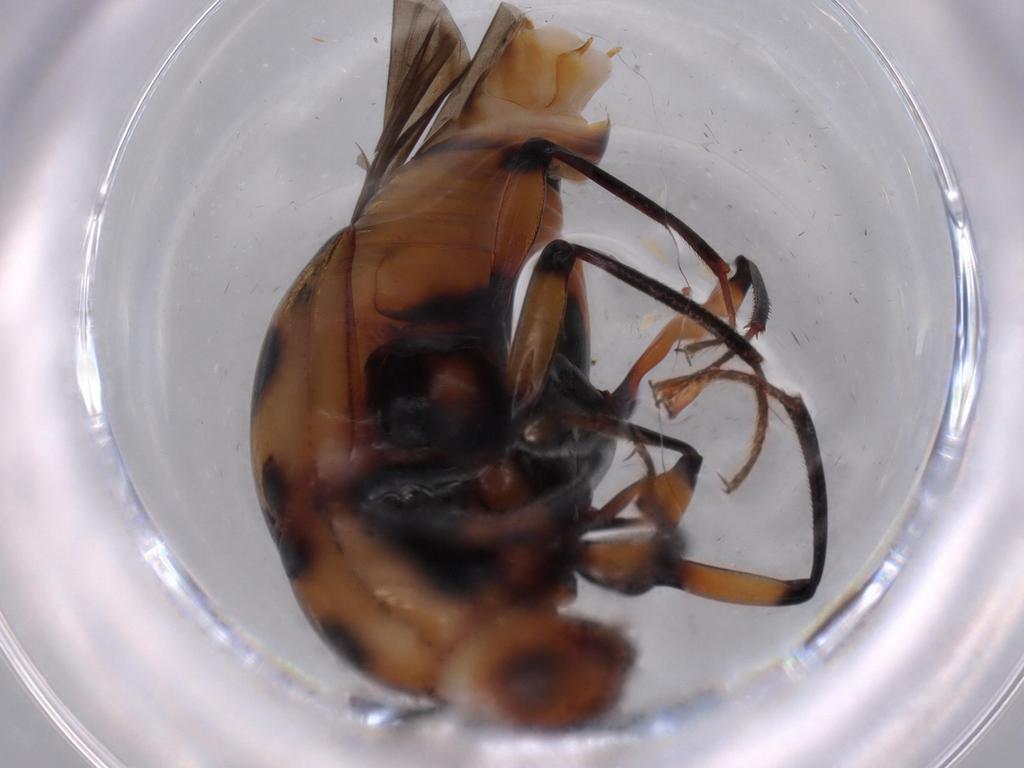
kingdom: Animalia
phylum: Arthropoda
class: Insecta
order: Coleoptera
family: Staphylinidae
